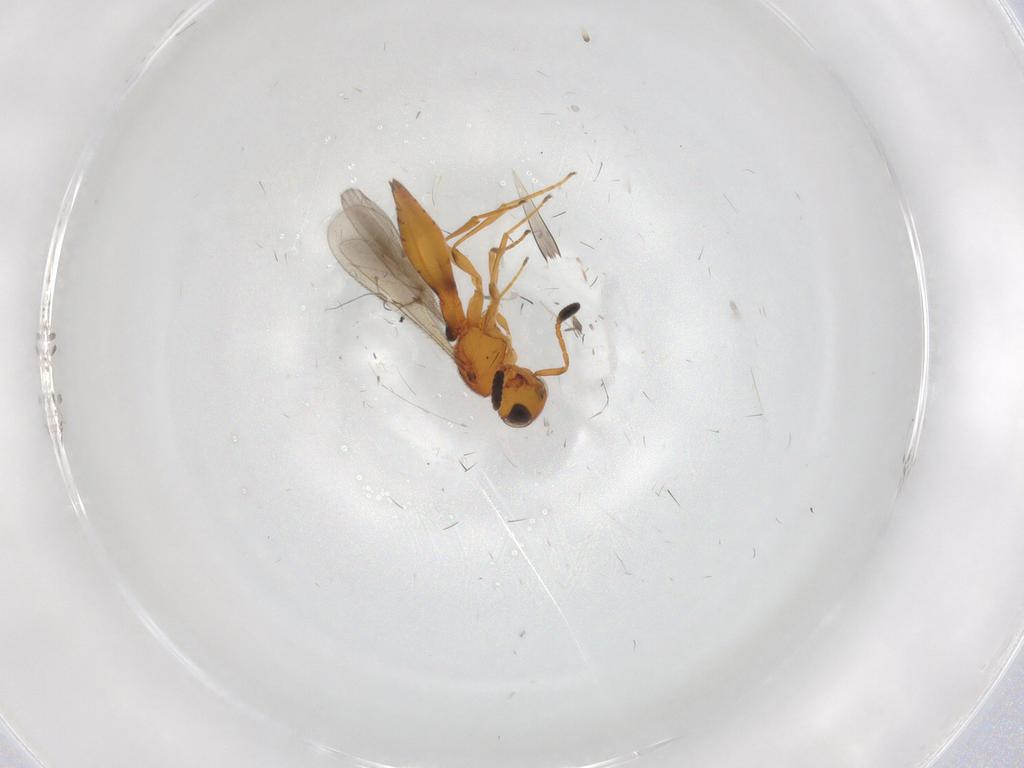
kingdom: Animalia
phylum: Arthropoda
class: Insecta
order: Hymenoptera
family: Scelionidae
